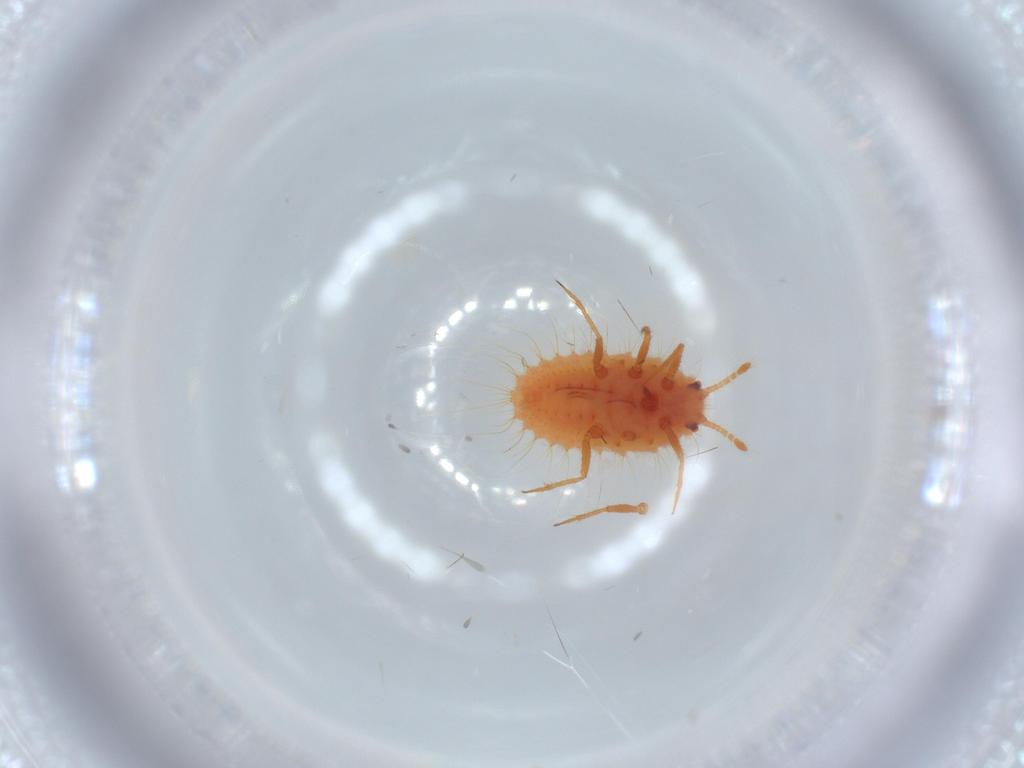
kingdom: Animalia
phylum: Arthropoda
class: Insecta
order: Hemiptera
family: Coccoidea_incertae_sedis
